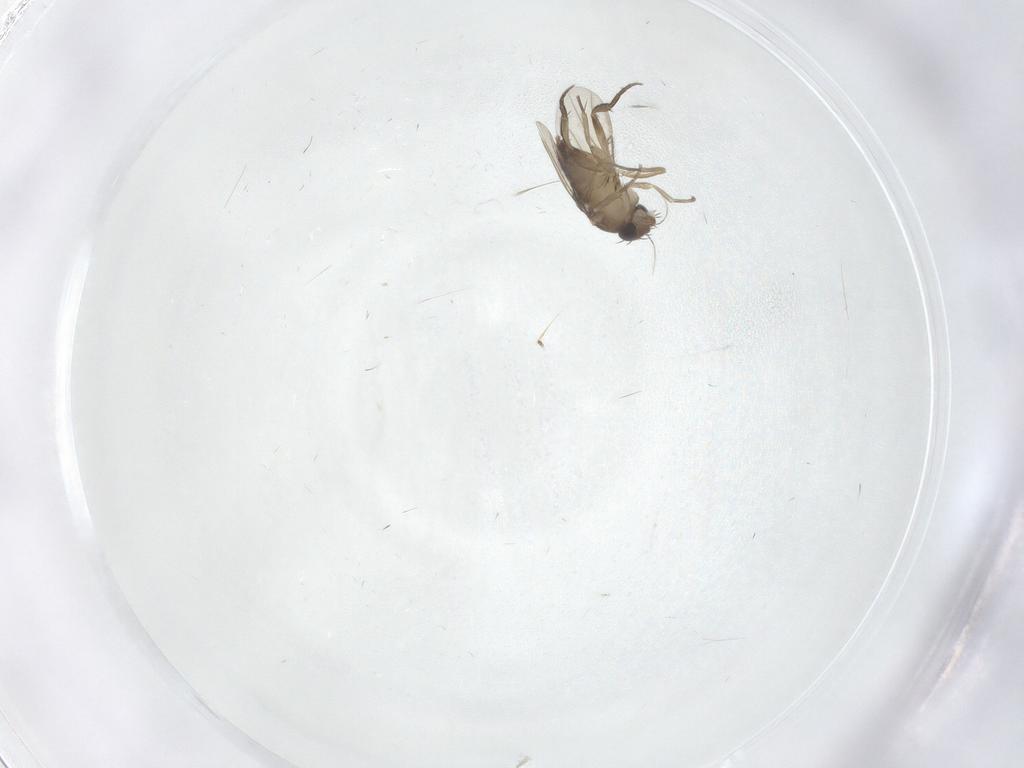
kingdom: Animalia
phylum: Arthropoda
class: Insecta
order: Diptera
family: Phoridae
